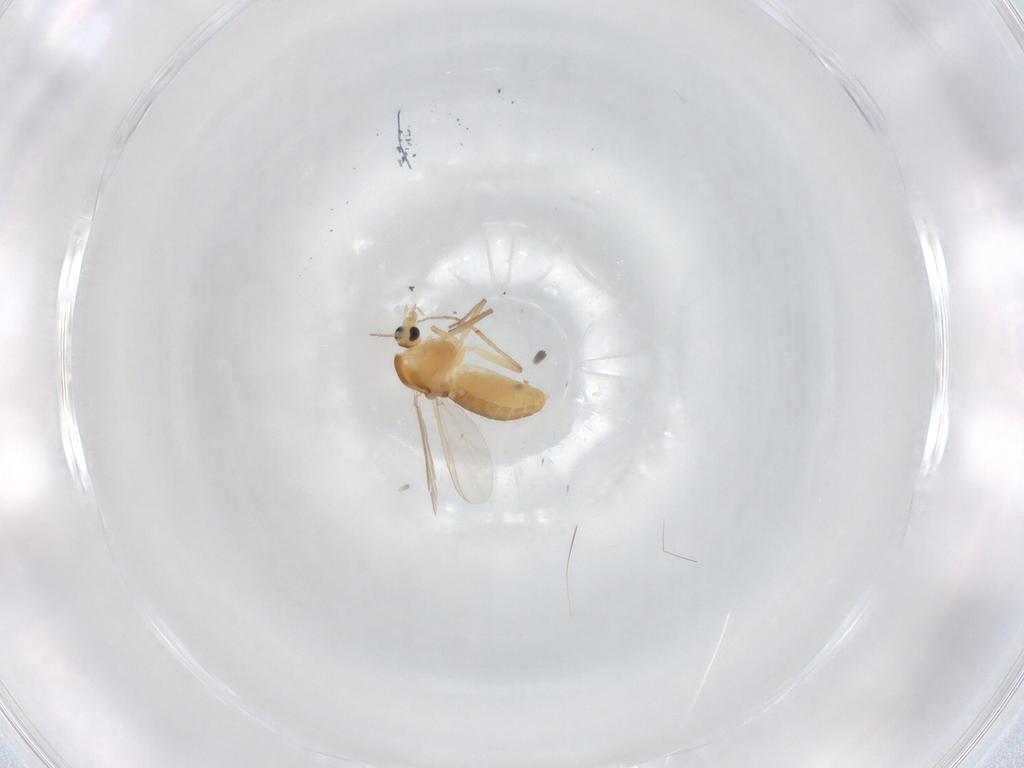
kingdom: Animalia
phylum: Arthropoda
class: Insecta
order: Diptera
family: Chironomidae
